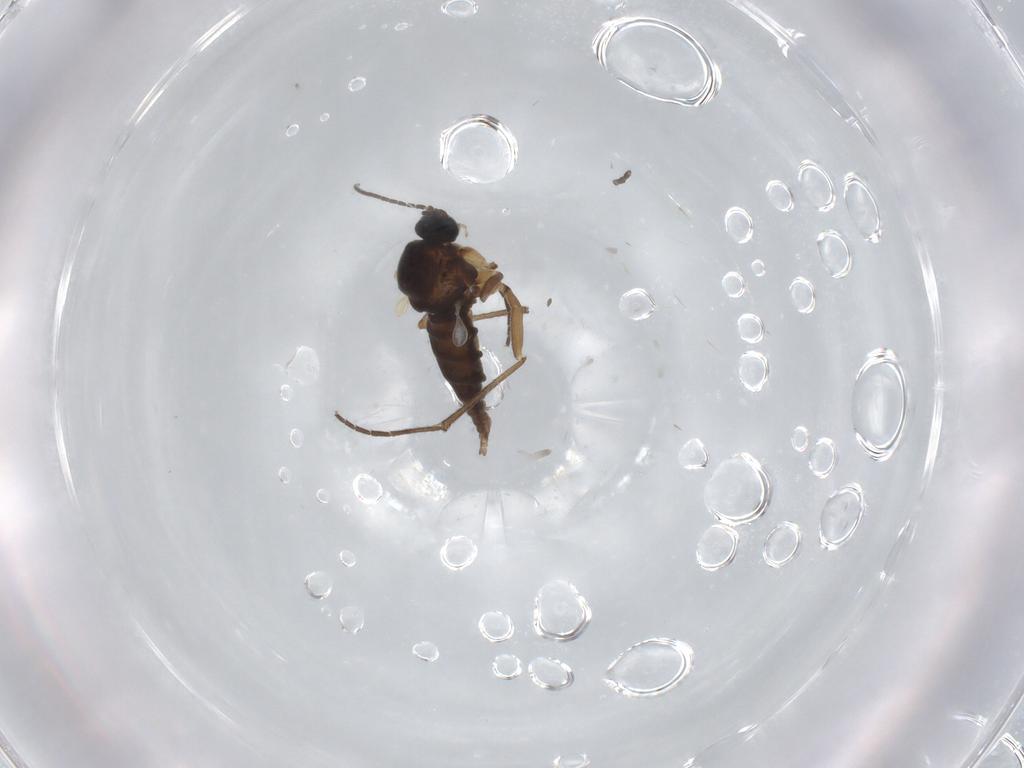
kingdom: Animalia
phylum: Arthropoda
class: Insecta
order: Diptera
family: Sciaridae
